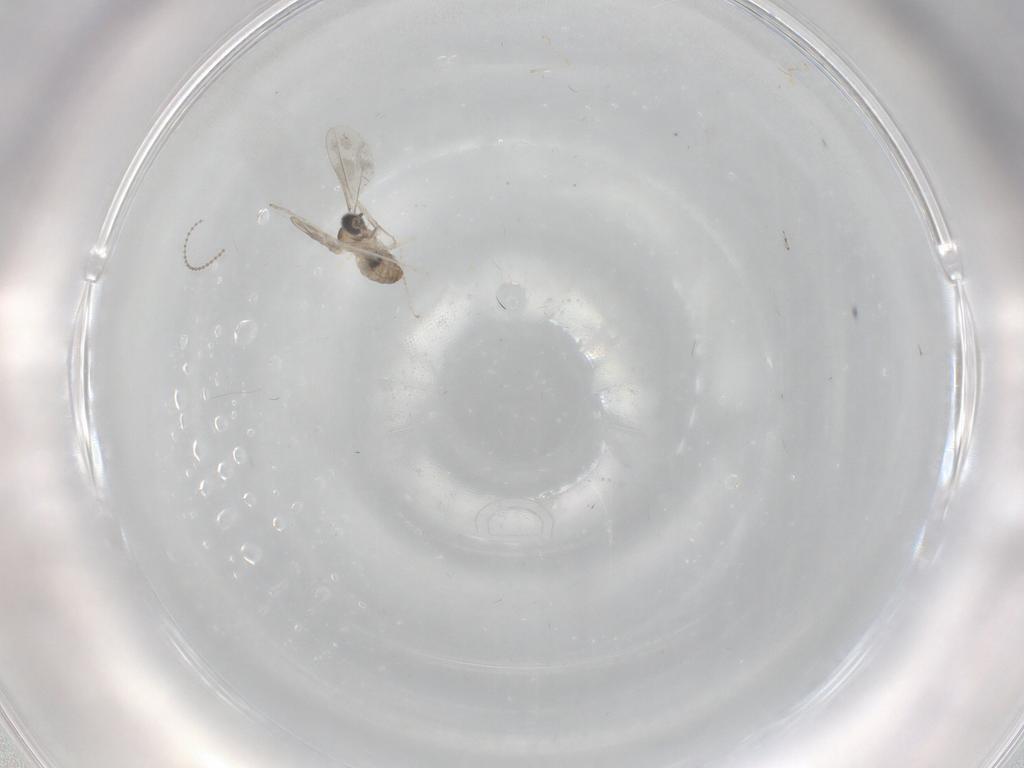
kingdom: Animalia
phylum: Arthropoda
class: Insecta
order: Diptera
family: Cecidomyiidae
